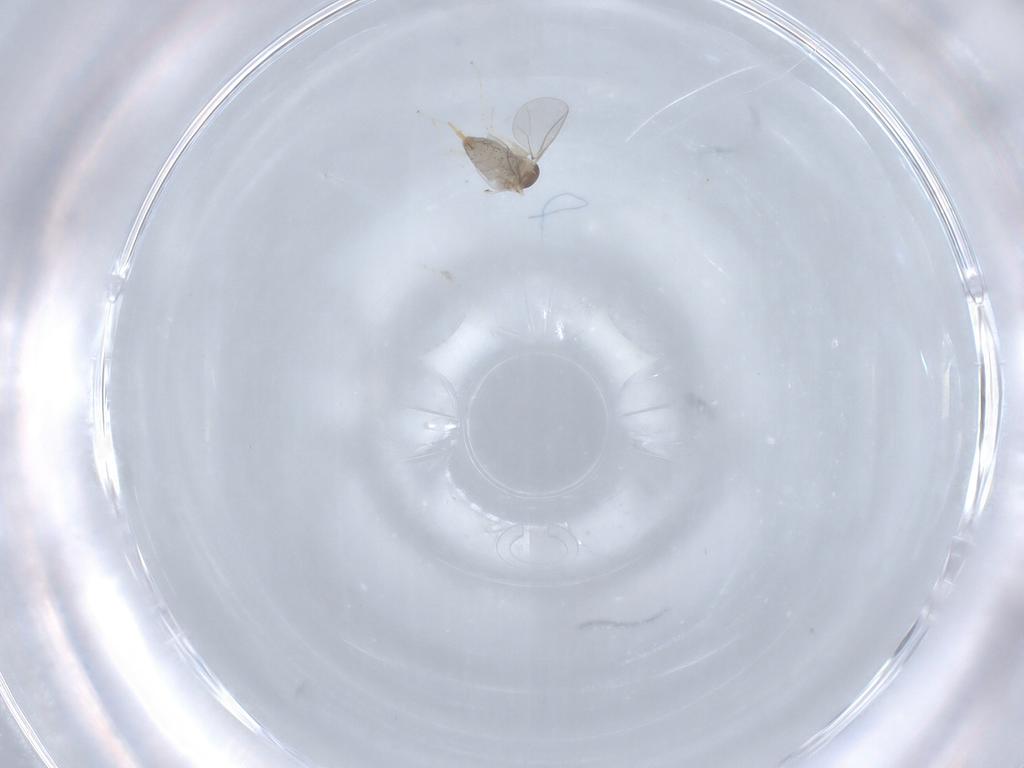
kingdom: Animalia
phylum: Arthropoda
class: Insecta
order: Diptera
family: Cecidomyiidae
